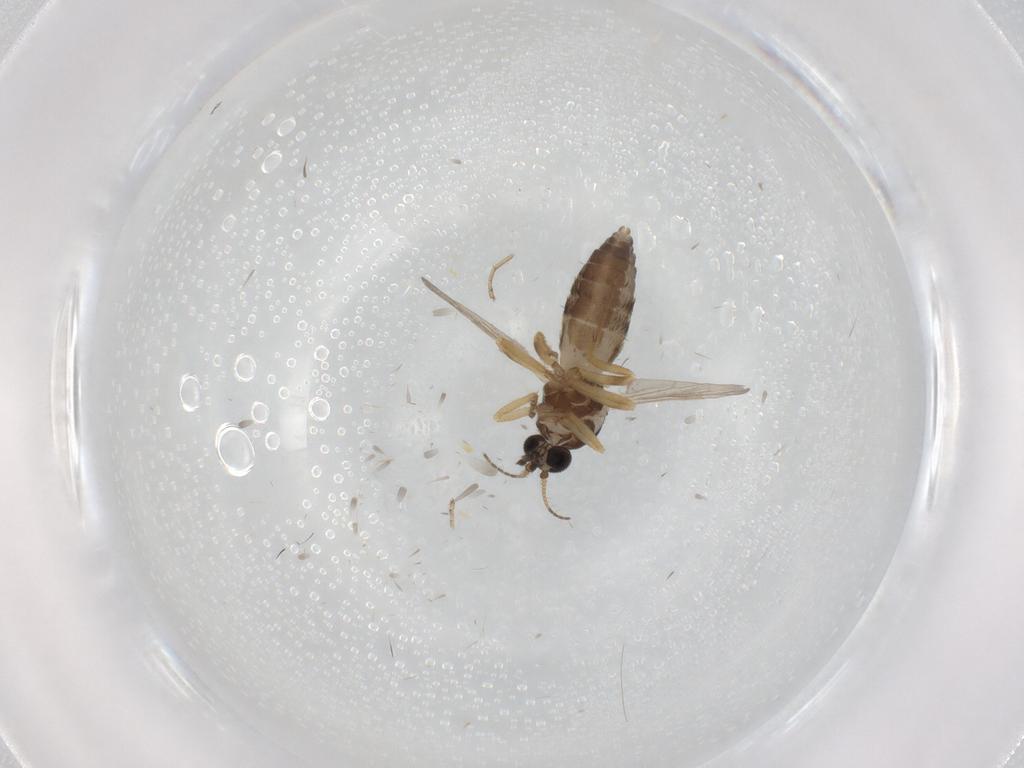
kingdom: Animalia
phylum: Arthropoda
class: Insecta
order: Diptera
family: Ceratopogonidae
